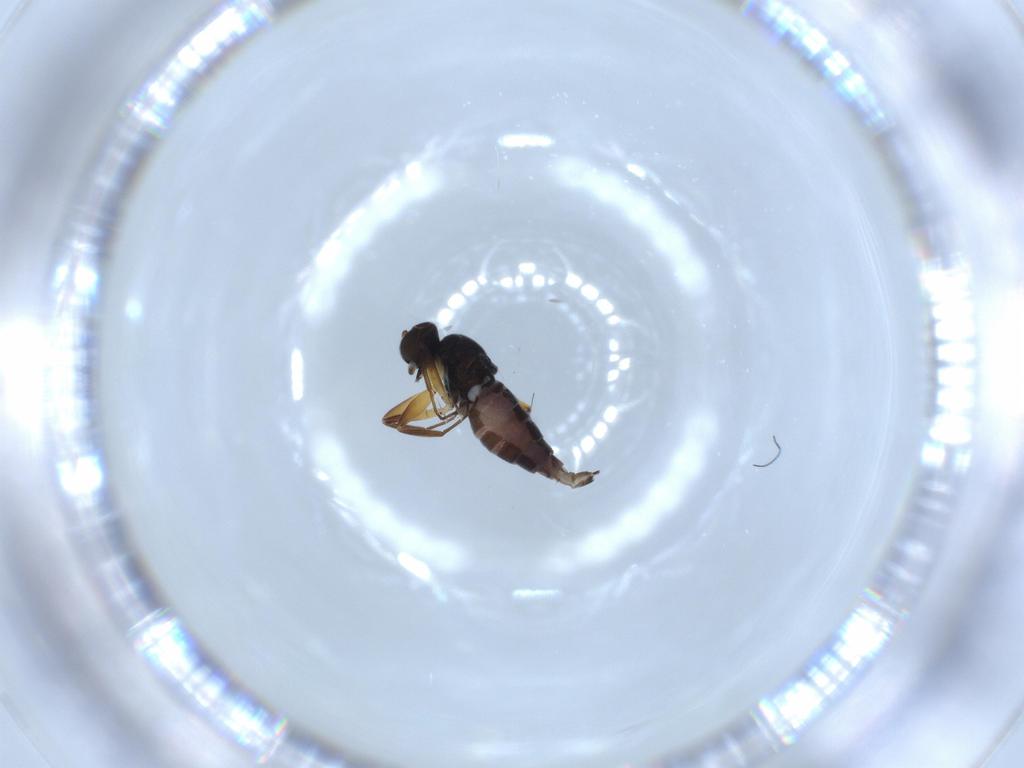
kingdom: Animalia
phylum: Arthropoda
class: Insecta
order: Diptera
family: Hybotidae
